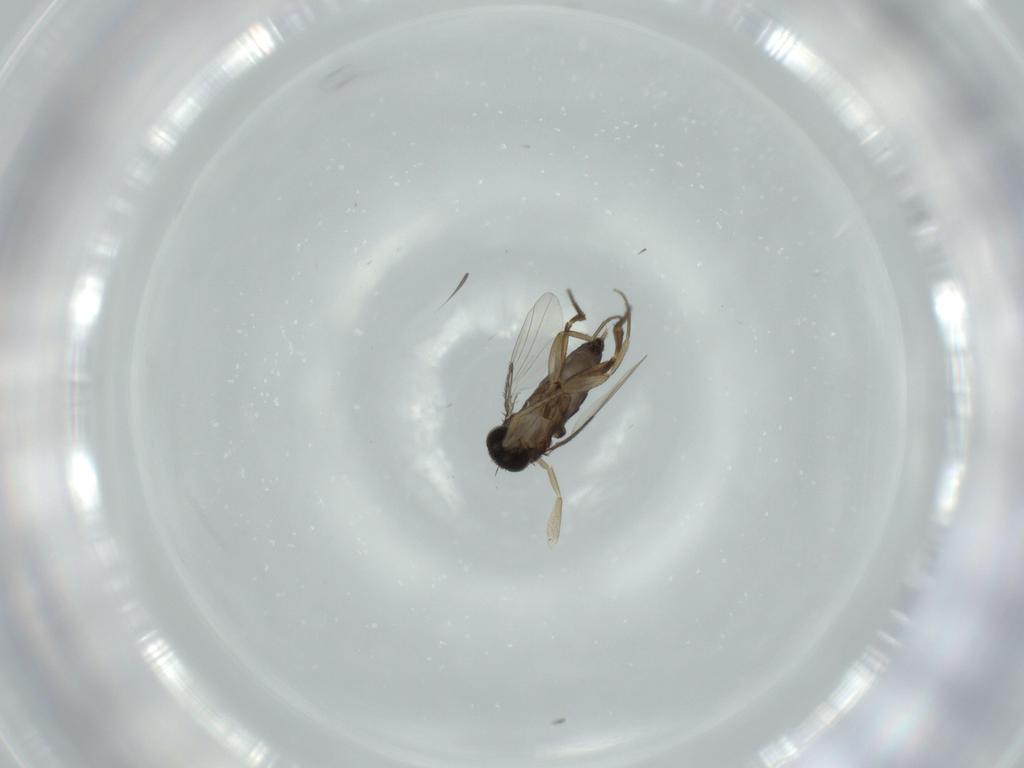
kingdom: Animalia
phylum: Arthropoda
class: Insecta
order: Diptera
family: Phoridae
